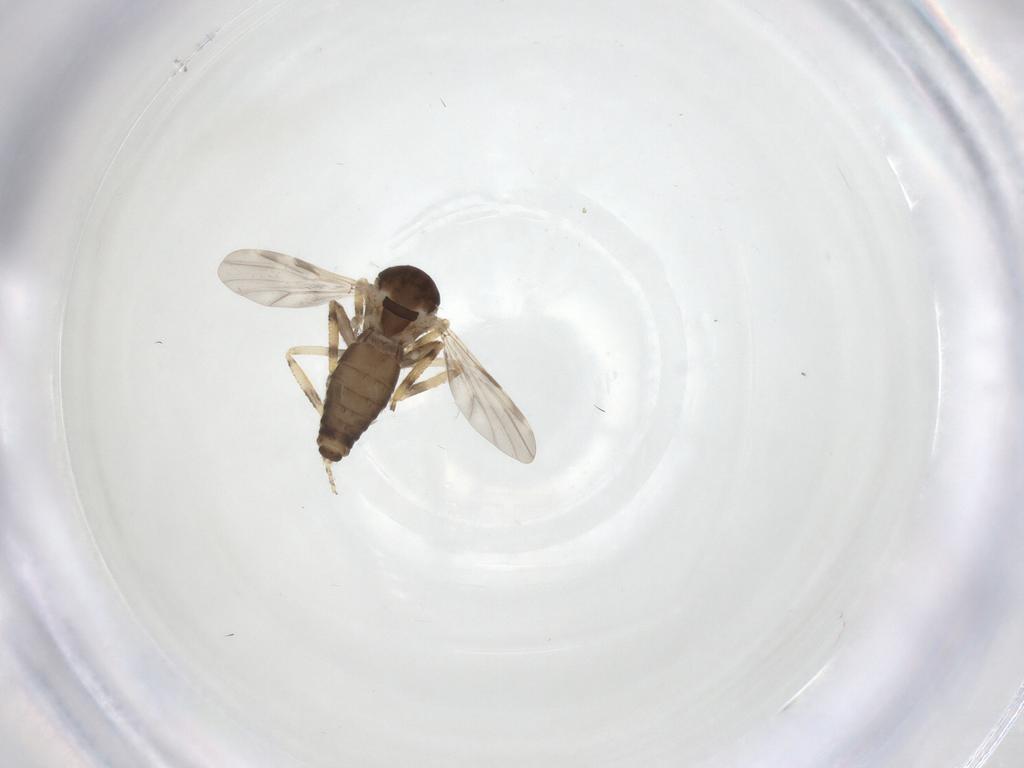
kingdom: Animalia
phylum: Arthropoda
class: Insecta
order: Diptera
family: Ceratopogonidae
